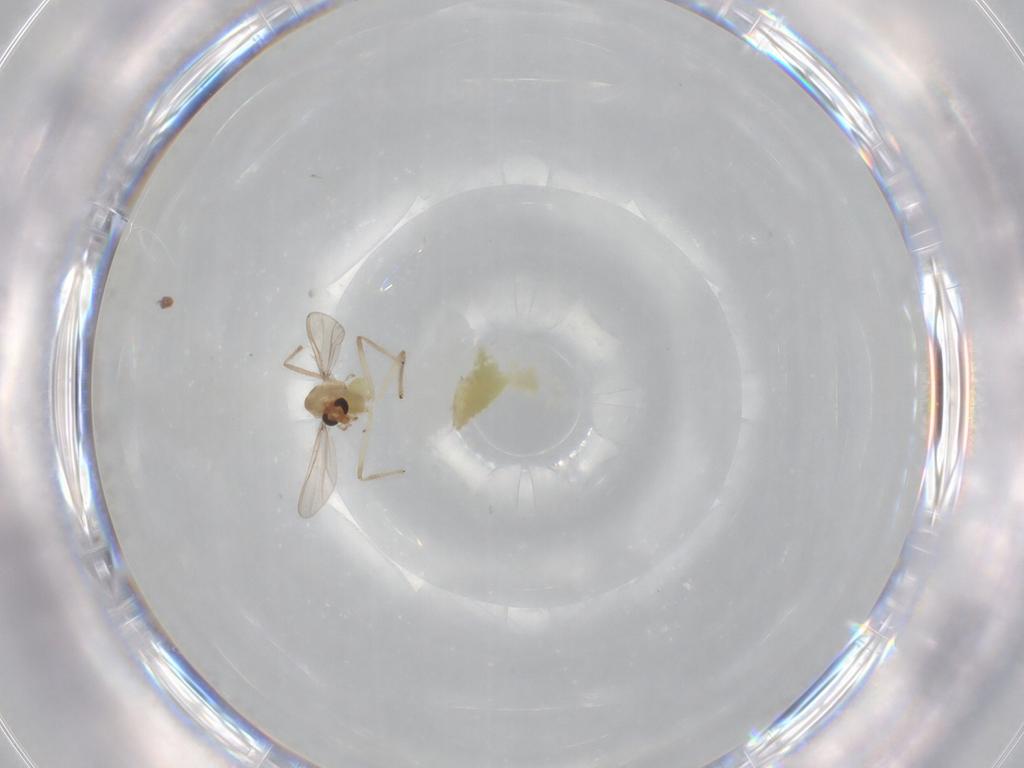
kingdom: Animalia
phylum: Arthropoda
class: Insecta
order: Diptera
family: Chironomidae
